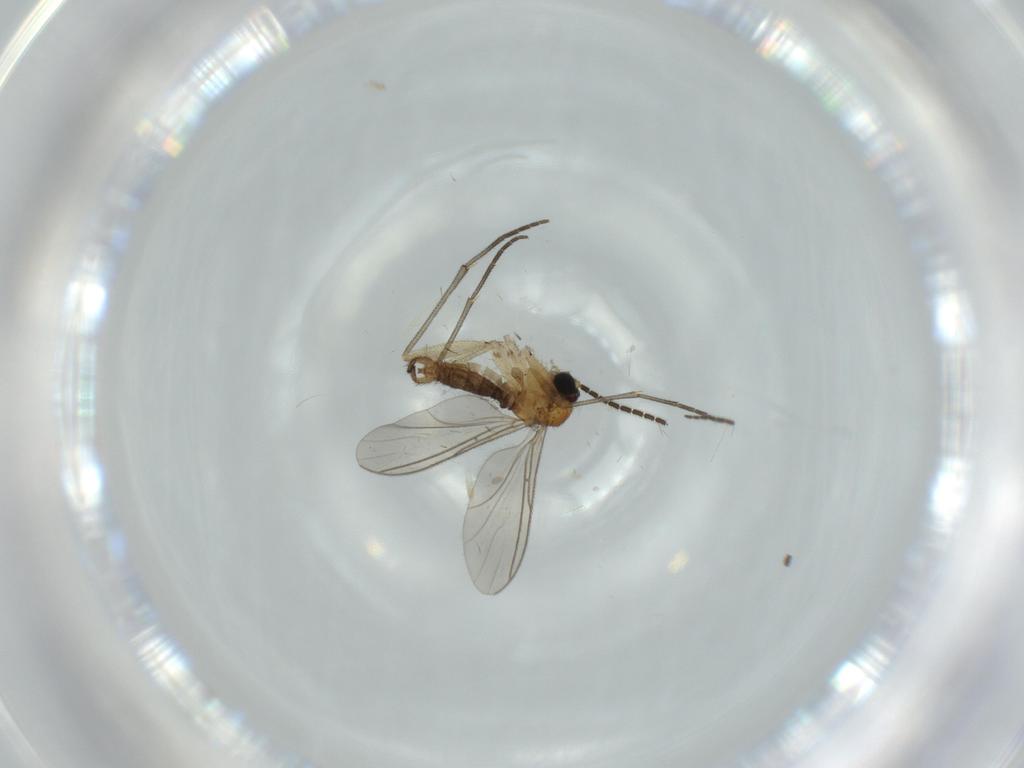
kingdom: Animalia
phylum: Arthropoda
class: Insecta
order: Diptera
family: Sciaridae
